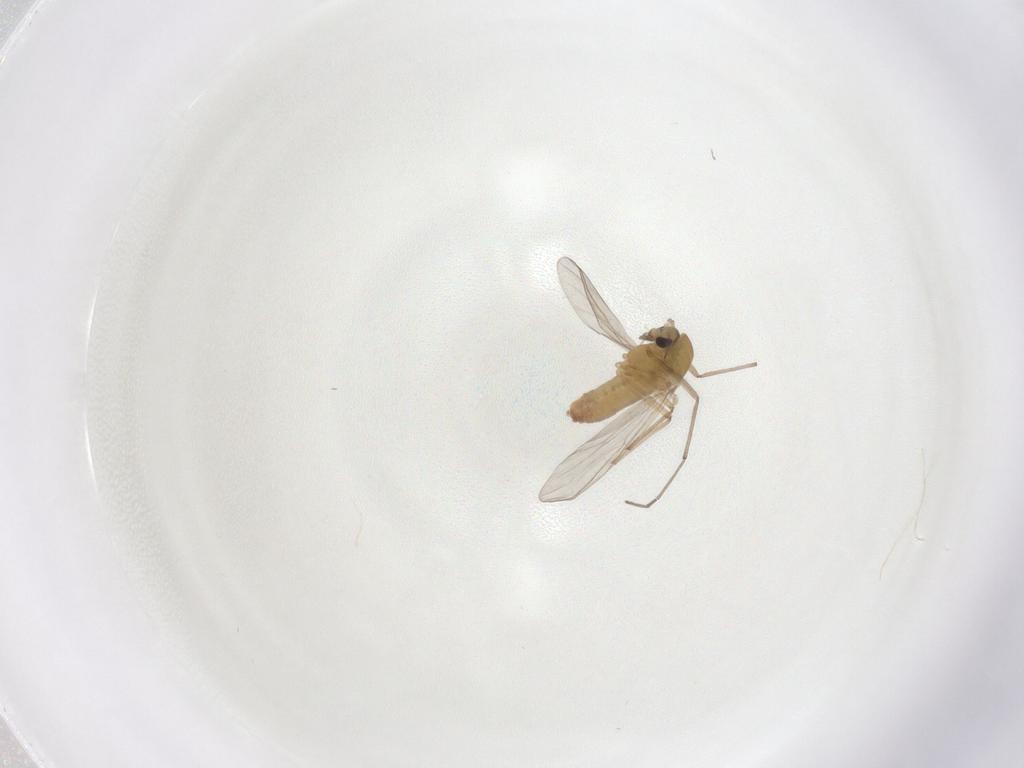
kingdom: Animalia
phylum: Arthropoda
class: Insecta
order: Diptera
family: Chironomidae
